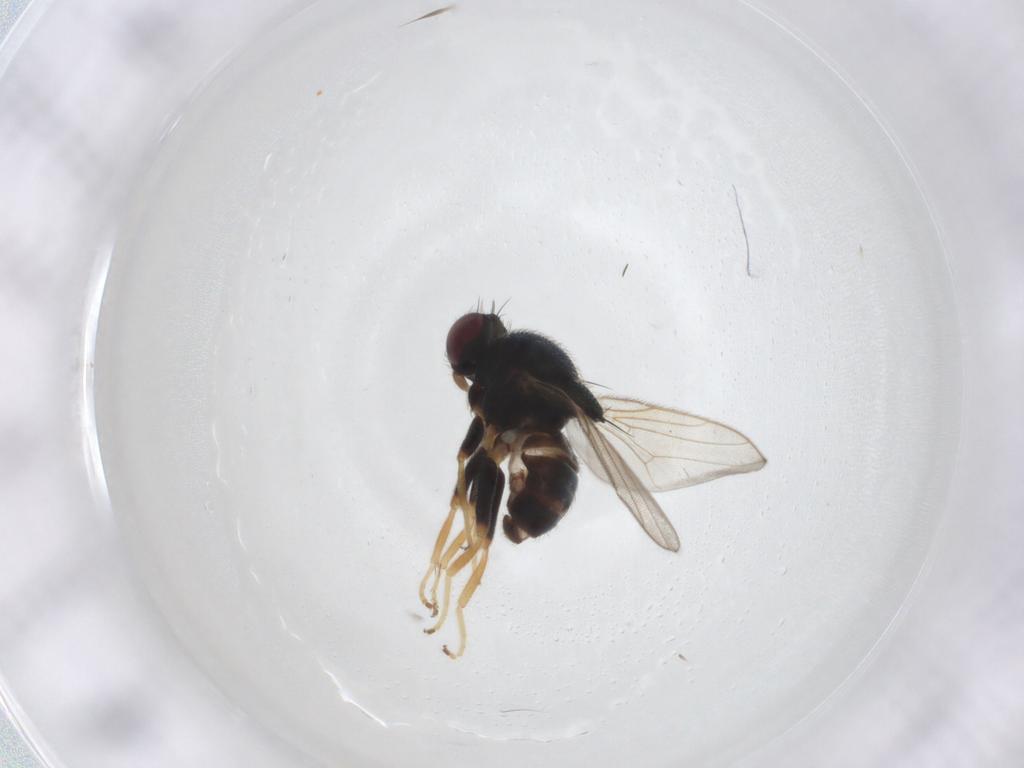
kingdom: Animalia
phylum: Arthropoda
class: Insecta
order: Diptera
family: Chloropidae
